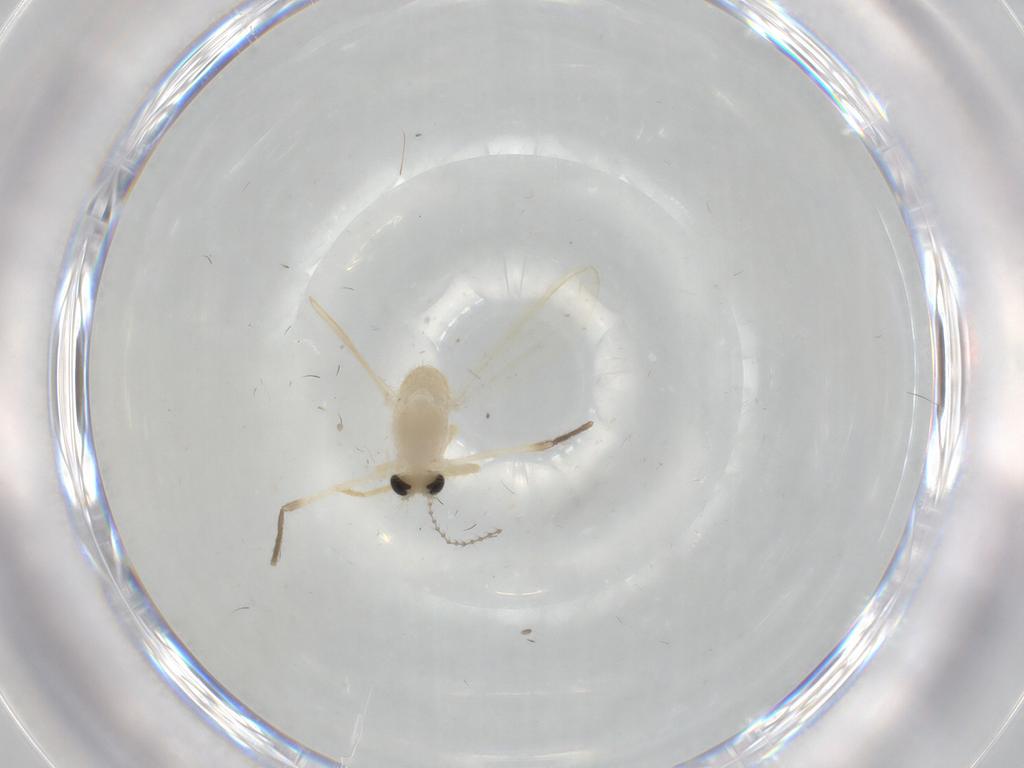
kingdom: Animalia
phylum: Arthropoda
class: Insecta
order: Diptera
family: Chironomidae
